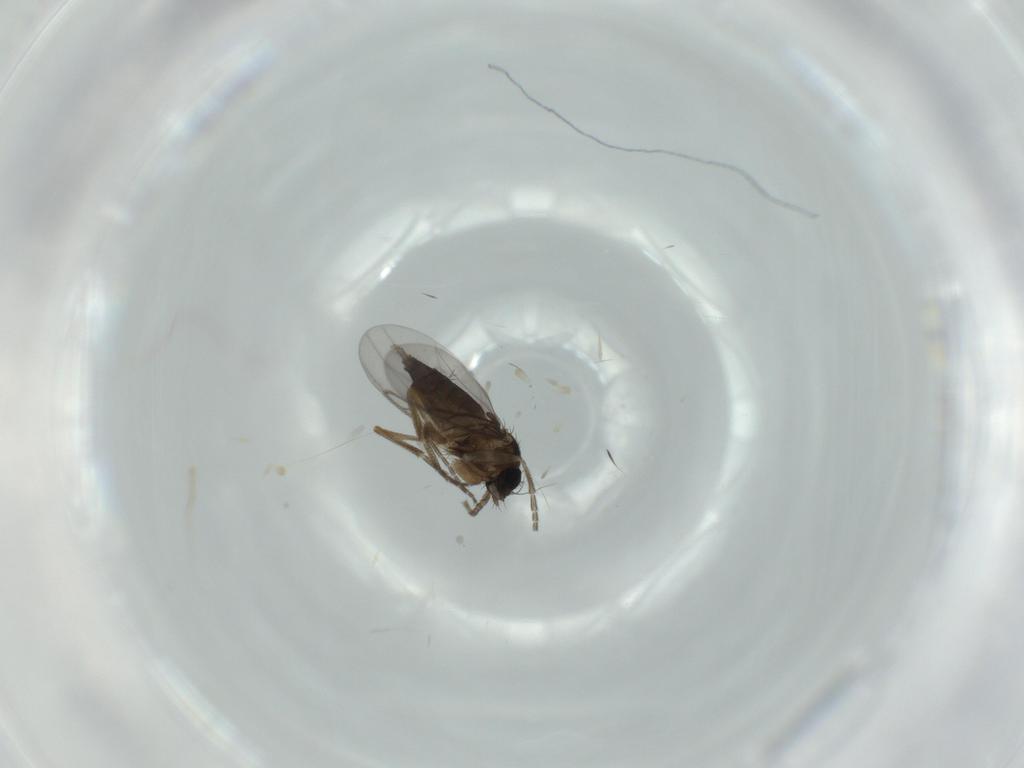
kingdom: Animalia
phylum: Arthropoda
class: Insecta
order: Diptera
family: Phoridae
